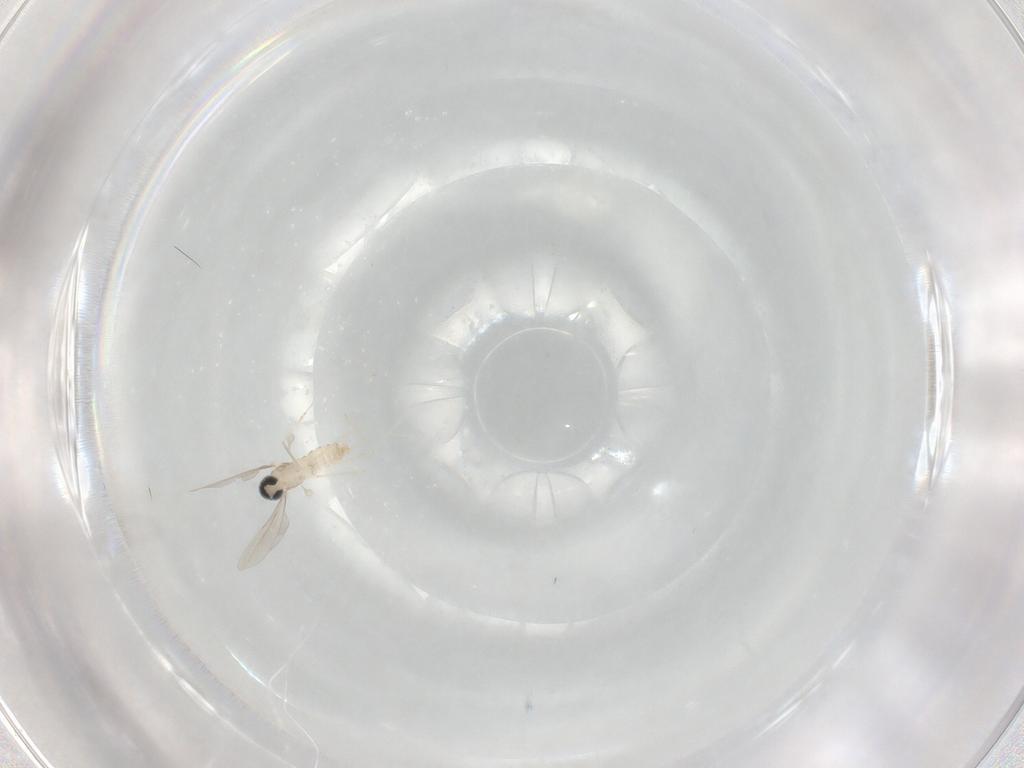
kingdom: Animalia
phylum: Arthropoda
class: Insecta
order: Diptera
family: Cecidomyiidae
